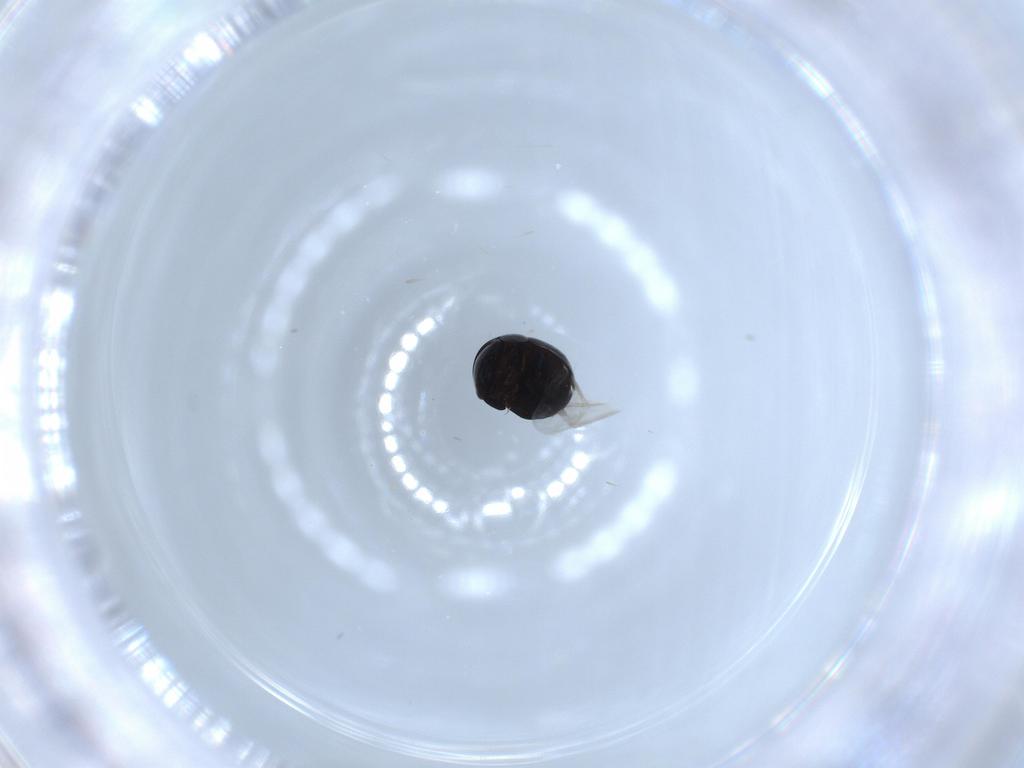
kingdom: Animalia
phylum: Arthropoda
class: Insecta
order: Coleoptera
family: Cybocephalidae
